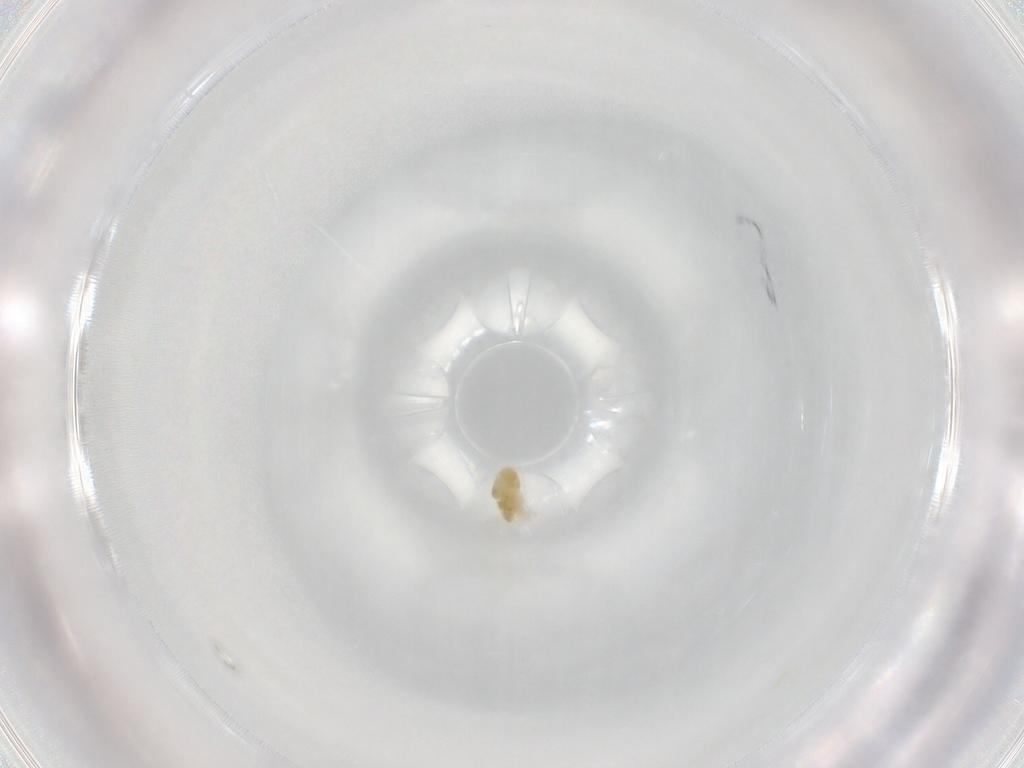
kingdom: Animalia
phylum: Arthropoda
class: Arachnida
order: Trombidiformes
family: Eupodidae
